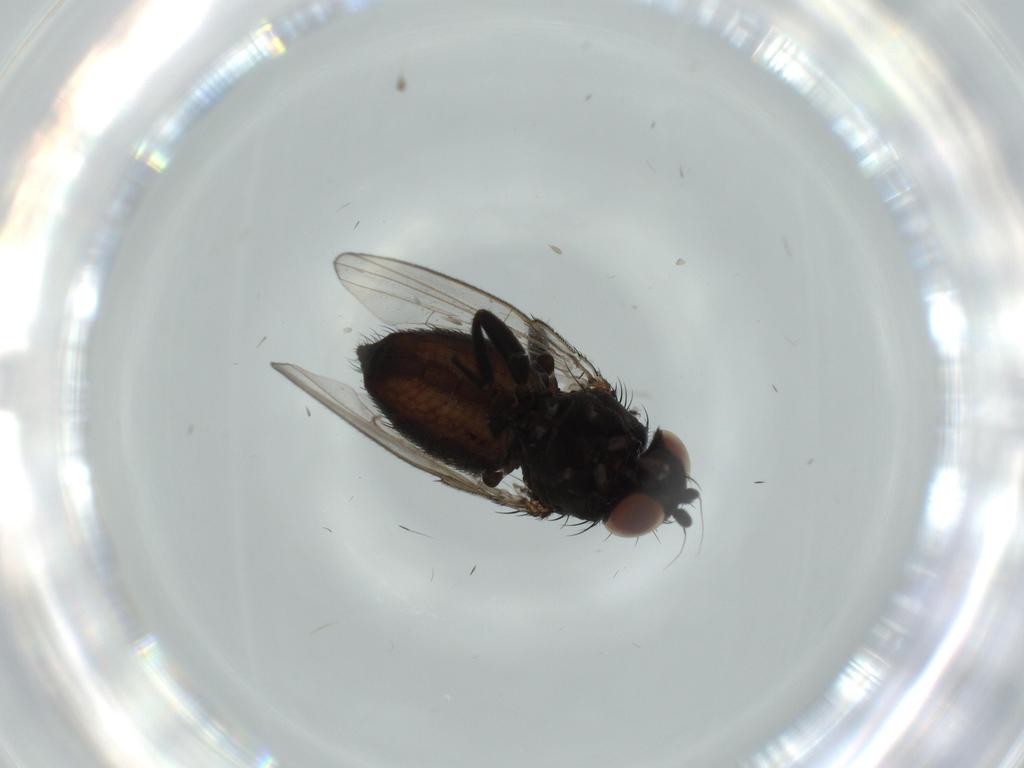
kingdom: Animalia
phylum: Arthropoda
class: Insecta
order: Diptera
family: Milichiidae
